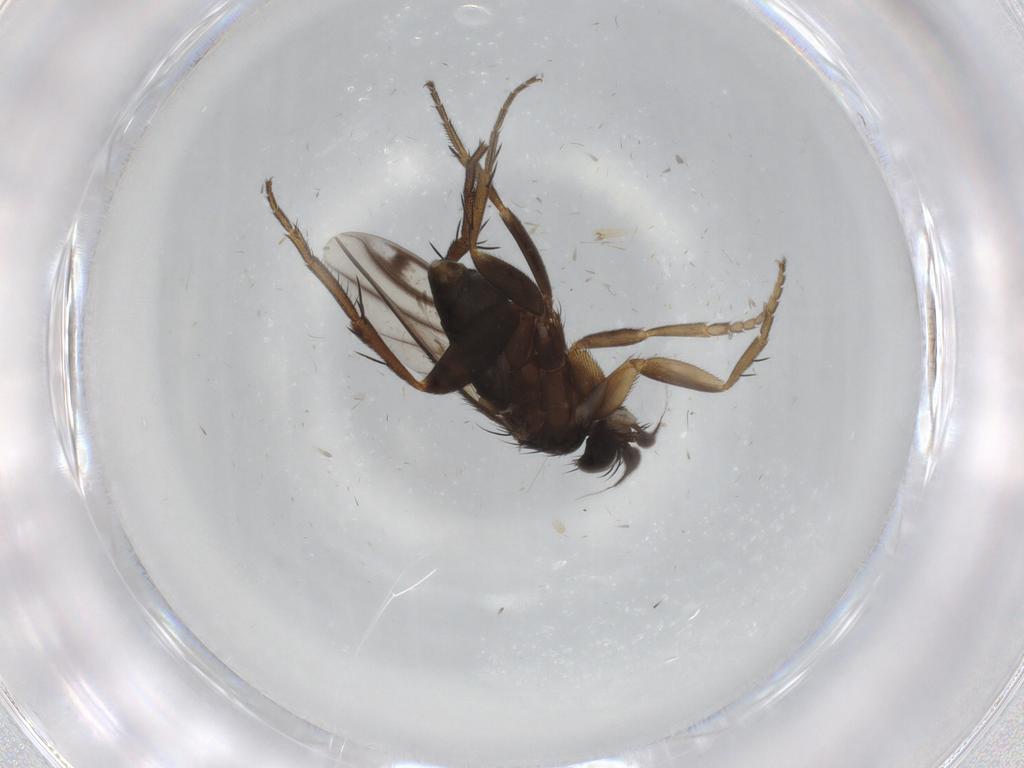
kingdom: Animalia
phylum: Arthropoda
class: Insecta
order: Diptera
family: Phoridae
